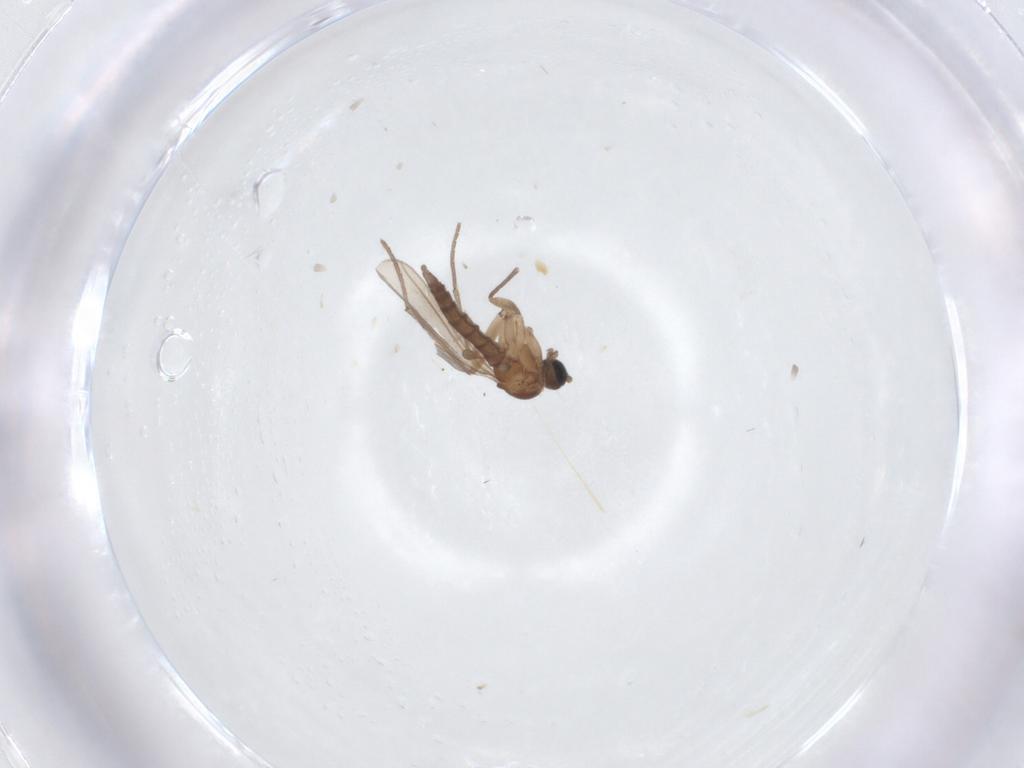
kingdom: Animalia
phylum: Arthropoda
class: Insecta
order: Diptera
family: Sciaridae
